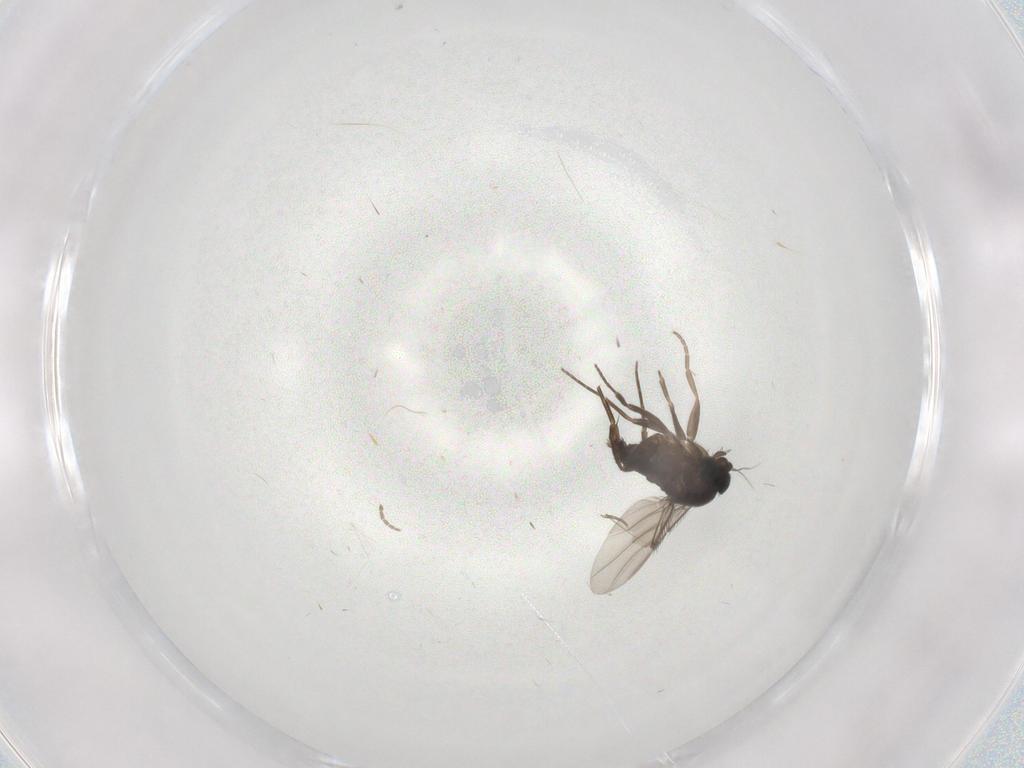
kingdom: Animalia
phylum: Arthropoda
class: Insecta
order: Diptera
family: Phoridae
